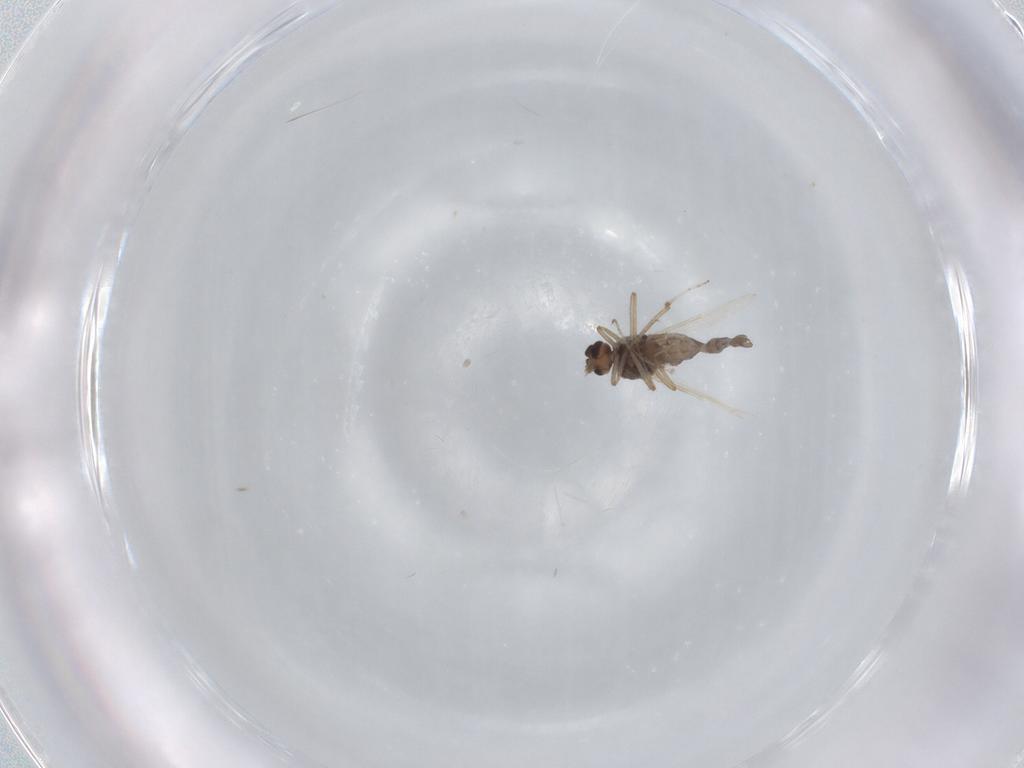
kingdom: Animalia
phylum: Arthropoda
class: Insecta
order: Diptera
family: Ceratopogonidae
